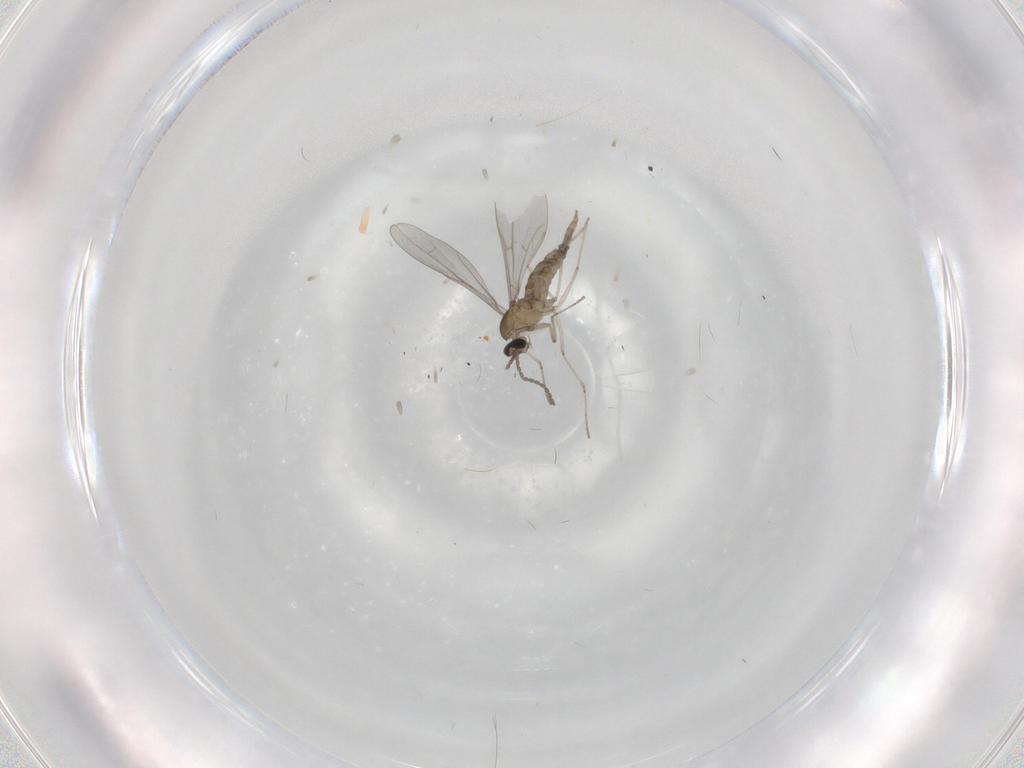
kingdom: Animalia
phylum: Arthropoda
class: Insecta
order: Diptera
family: Cecidomyiidae
